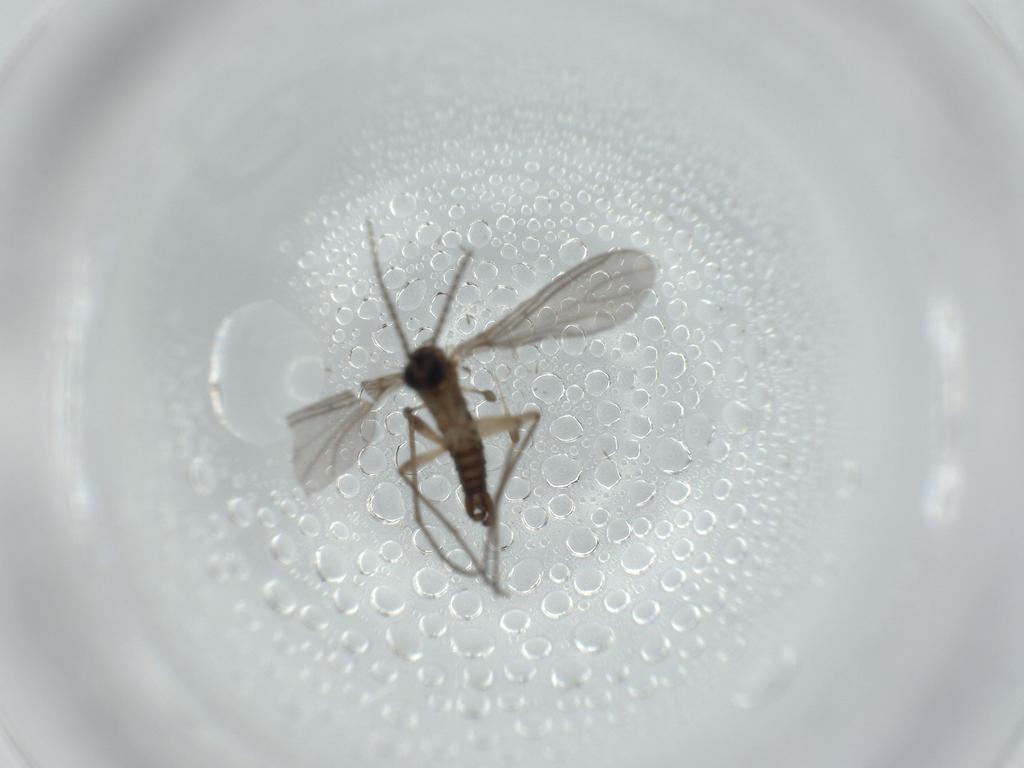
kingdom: Animalia
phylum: Arthropoda
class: Insecta
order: Diptera
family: Sciaridae
